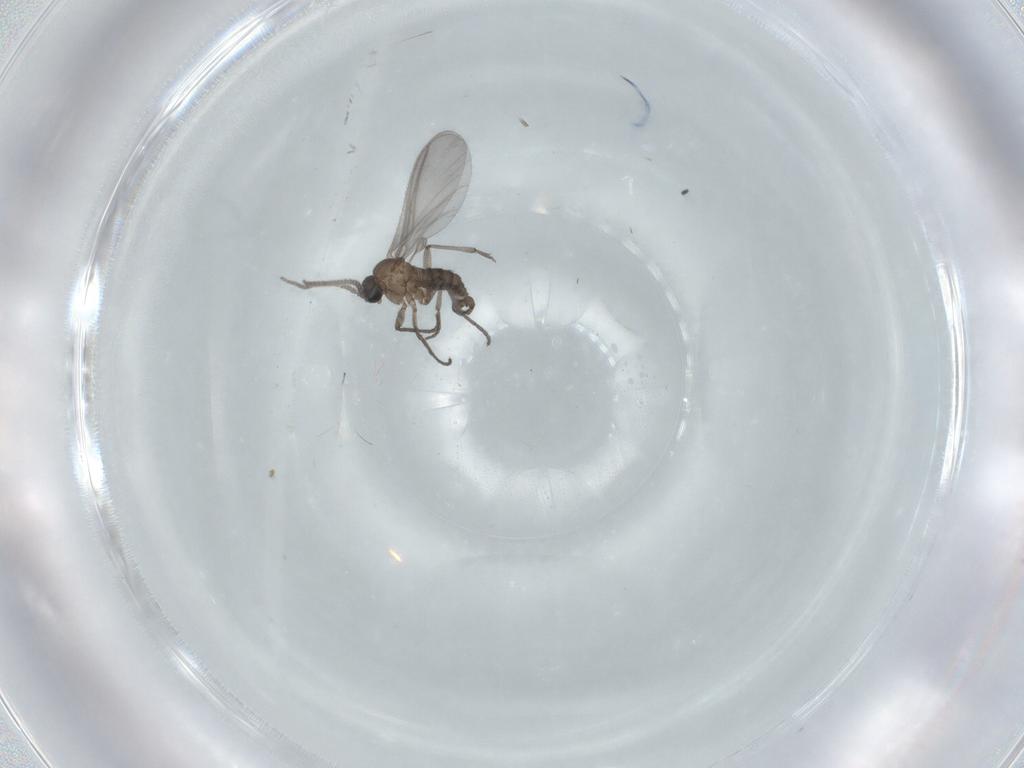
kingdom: Animalia
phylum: Arthropoda
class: Insecta
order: Diptera
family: Sciaridae
